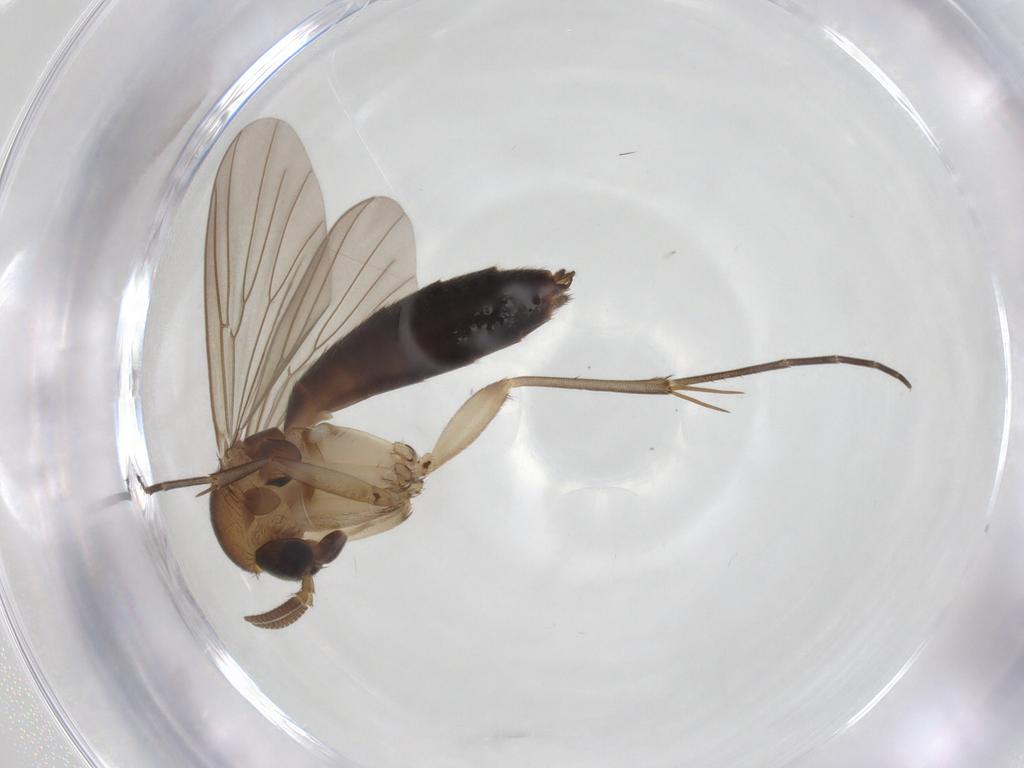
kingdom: Animalia
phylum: Arthropoda
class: Insecta
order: Diptera
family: Mycetophilidae
